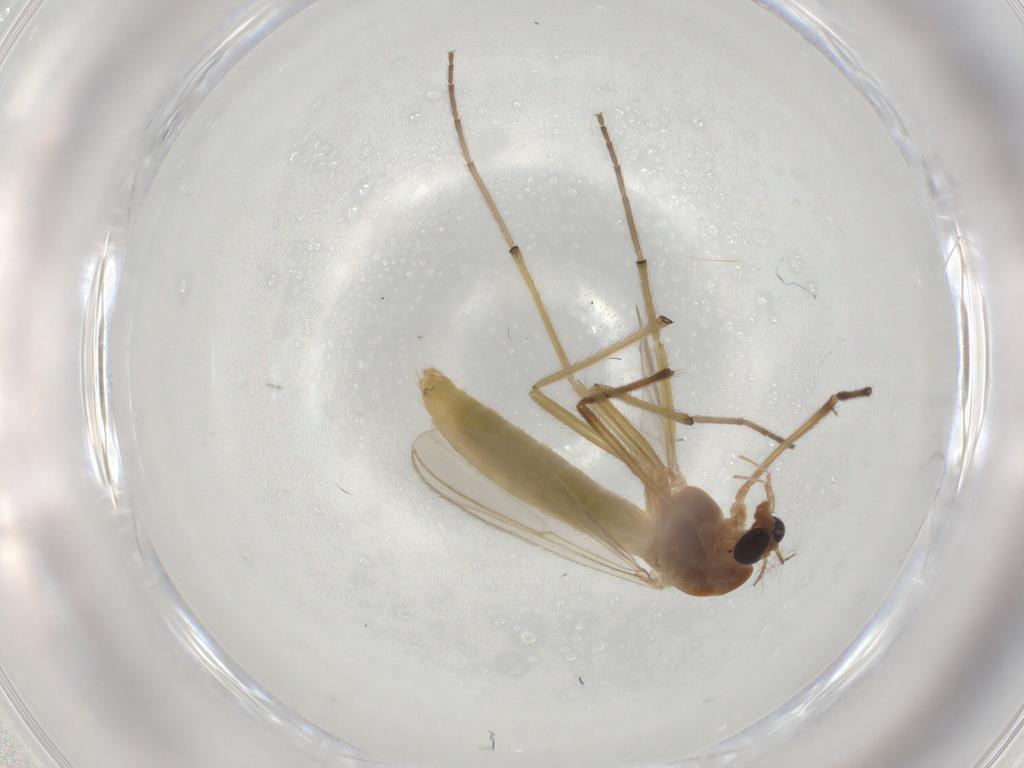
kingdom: Animalia
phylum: Arthropoda
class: Insecta
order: Diptera
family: Chironomidae
